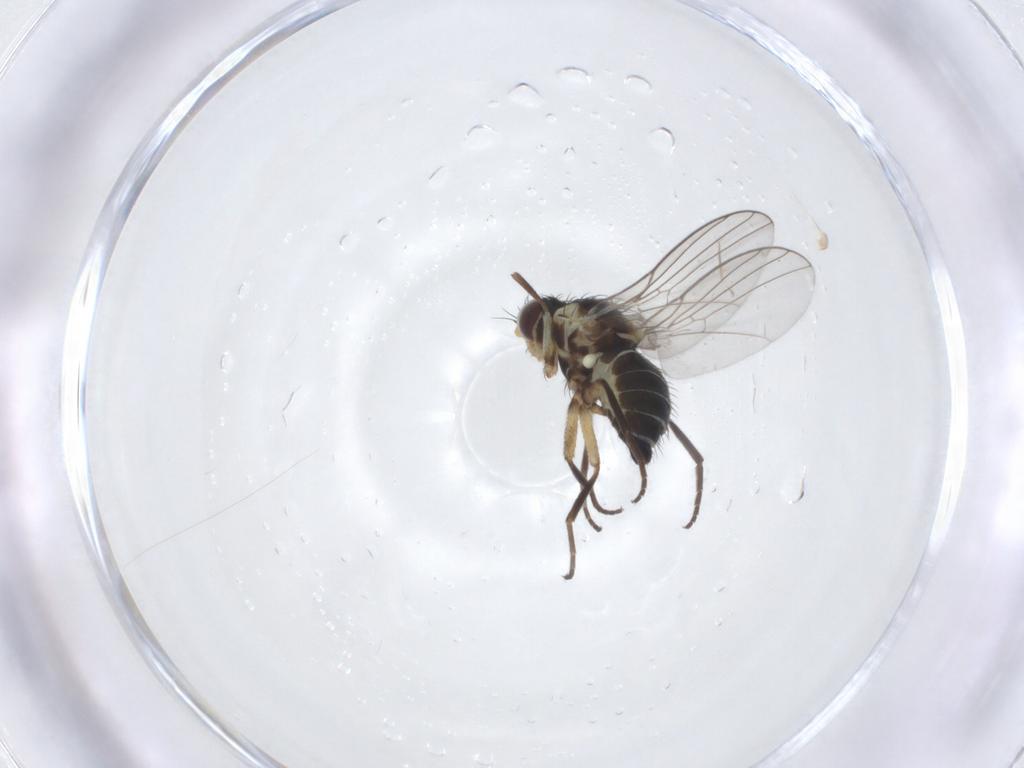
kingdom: Animalia
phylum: Arthropoda
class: Insecta
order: Diptera
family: Agromyzidae
